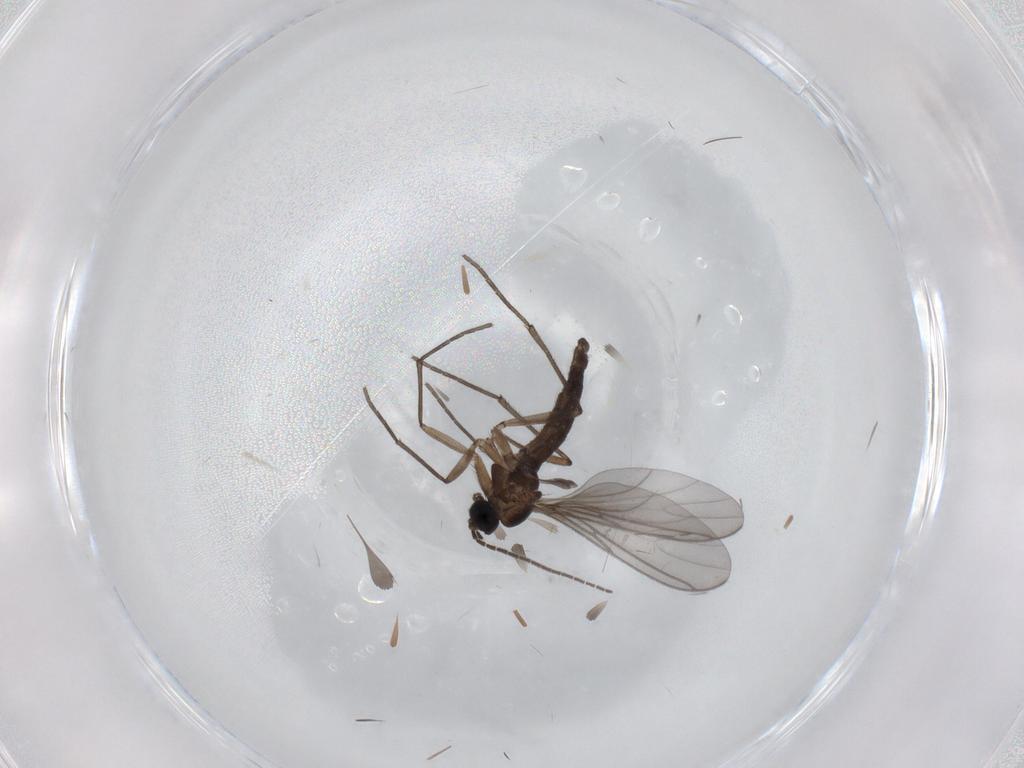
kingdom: Animalia
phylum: Arthropoda
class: Insecta
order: Diptera
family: Sciaridae
